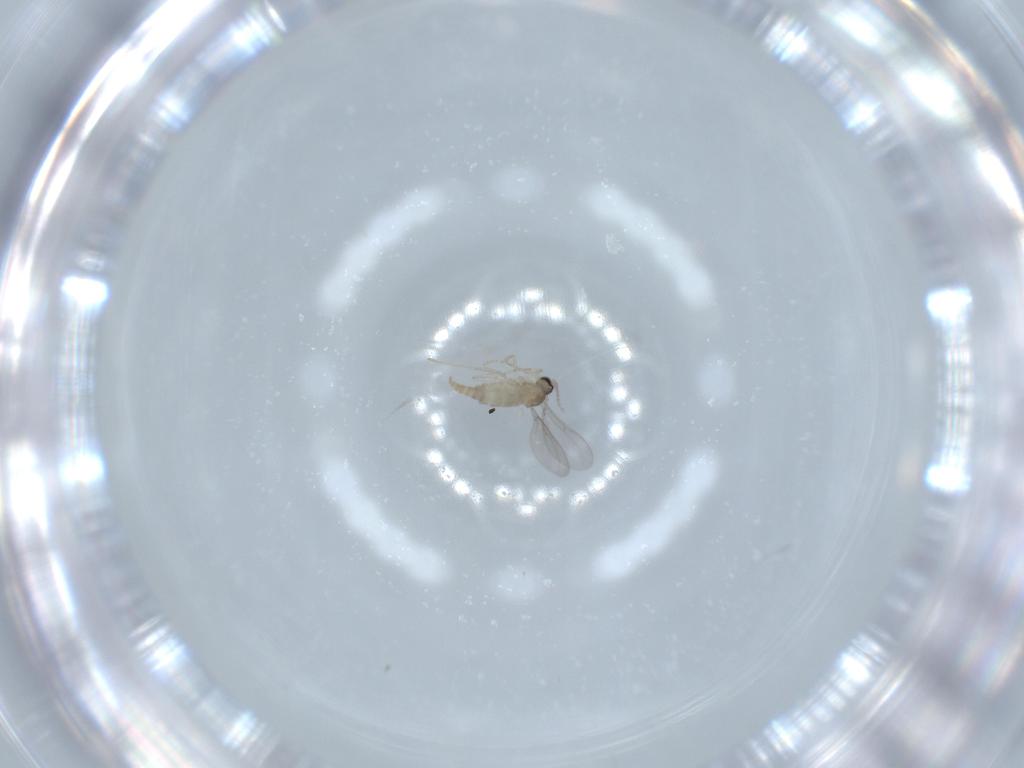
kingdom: Animalia
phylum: Arthropoda
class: Insecta
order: Diptera
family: Cecidomyiidae
